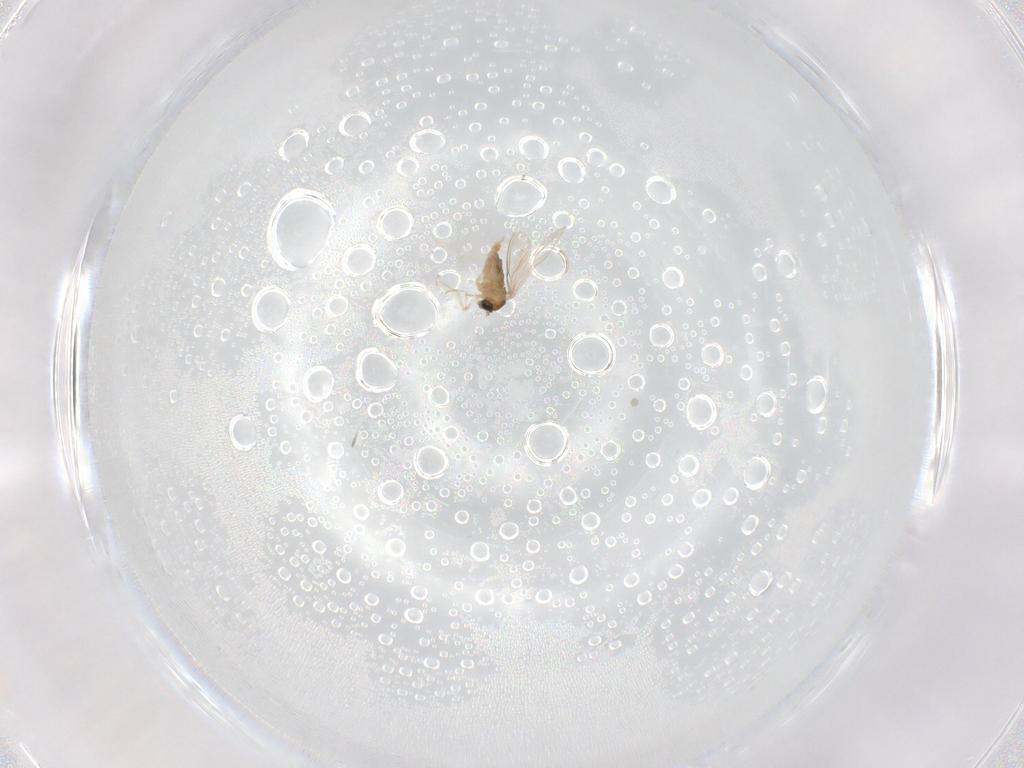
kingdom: Animalia
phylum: Arthropoda
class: Insecta
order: Diptera
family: Cecidomyiidae
